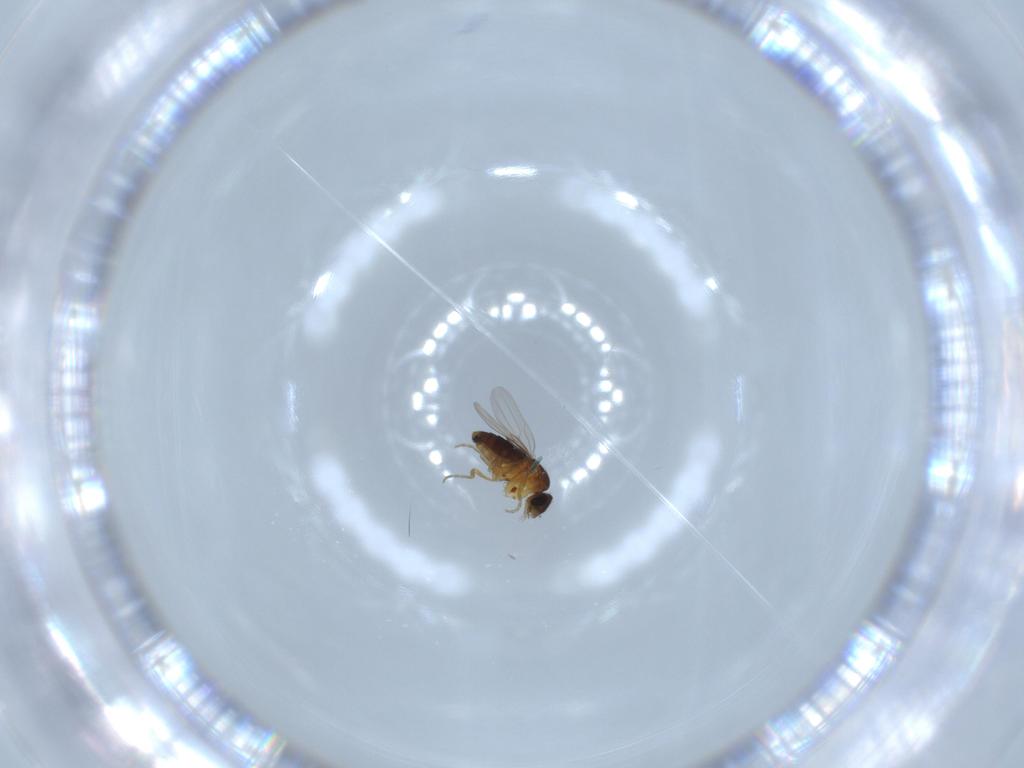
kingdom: Animalia
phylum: Arthropoda
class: Insecta
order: Diptera
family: Phoridae
